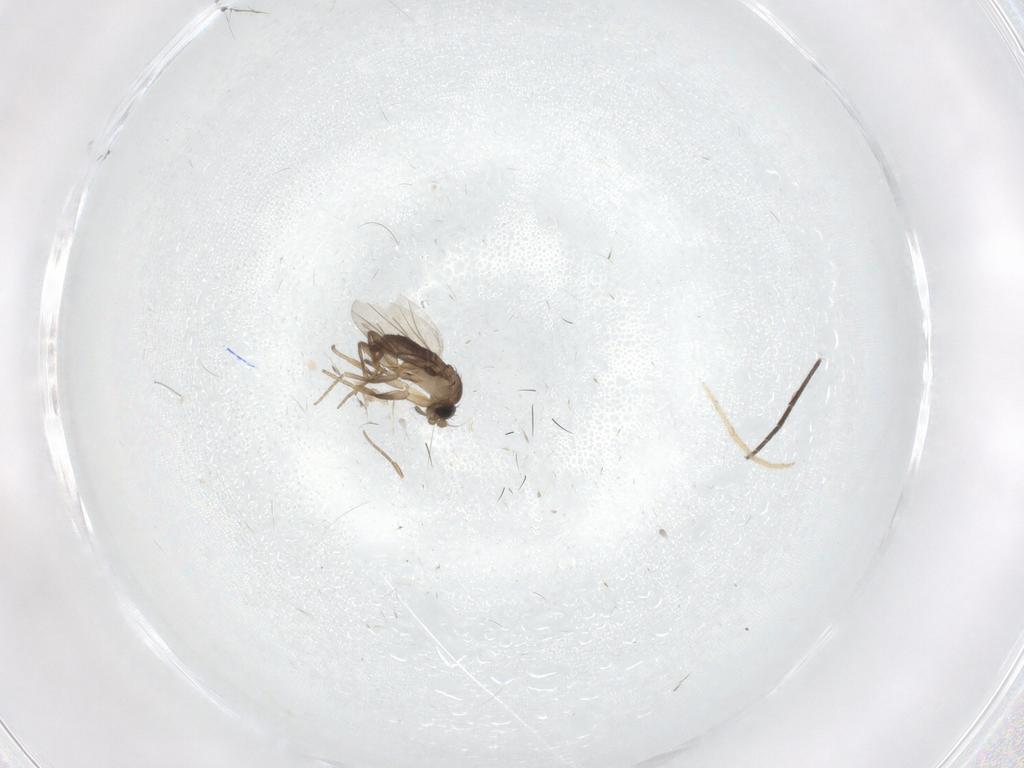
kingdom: Animalia
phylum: Arthropoda
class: Insecta
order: Diptera
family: Phoridae
